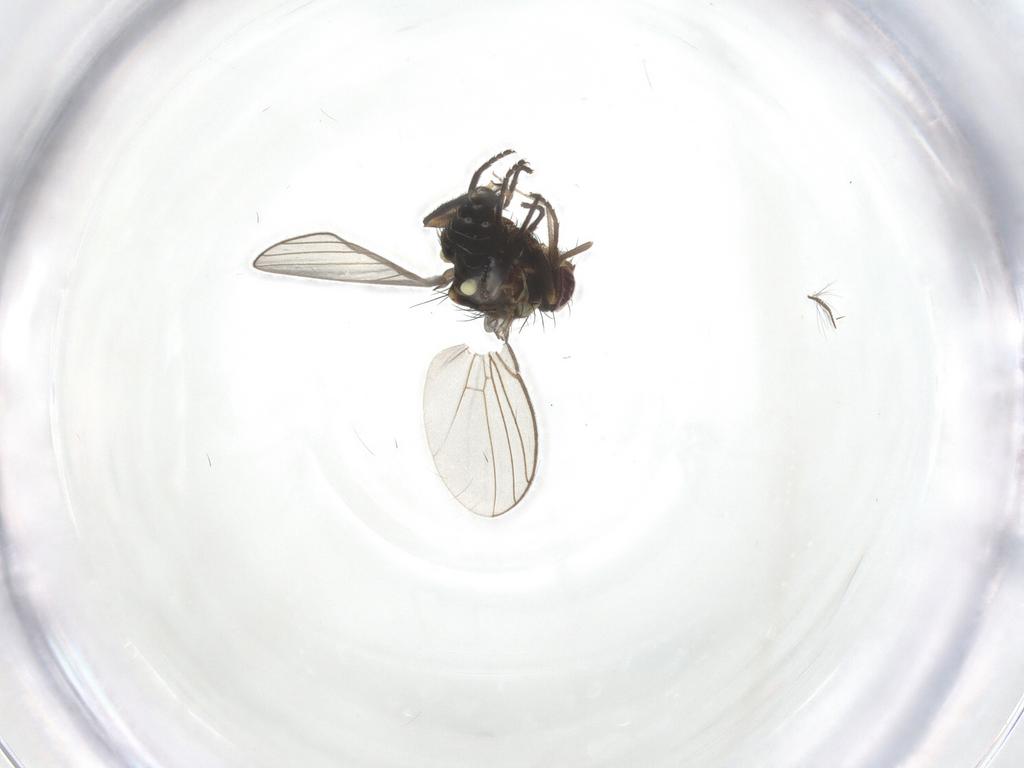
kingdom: Animalia
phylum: Arthropoda
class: Insecta
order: Diptera
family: Agromyzidae
